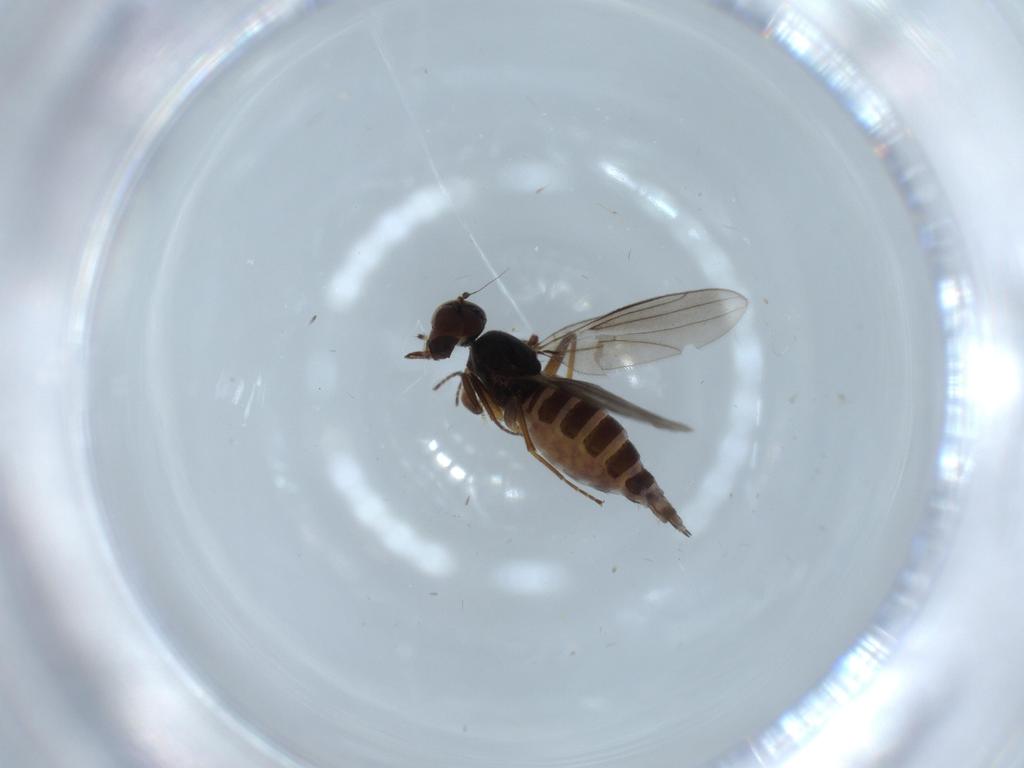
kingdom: Animalia
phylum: Arthropoda
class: Insecta
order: Diptera
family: Hybotidae
